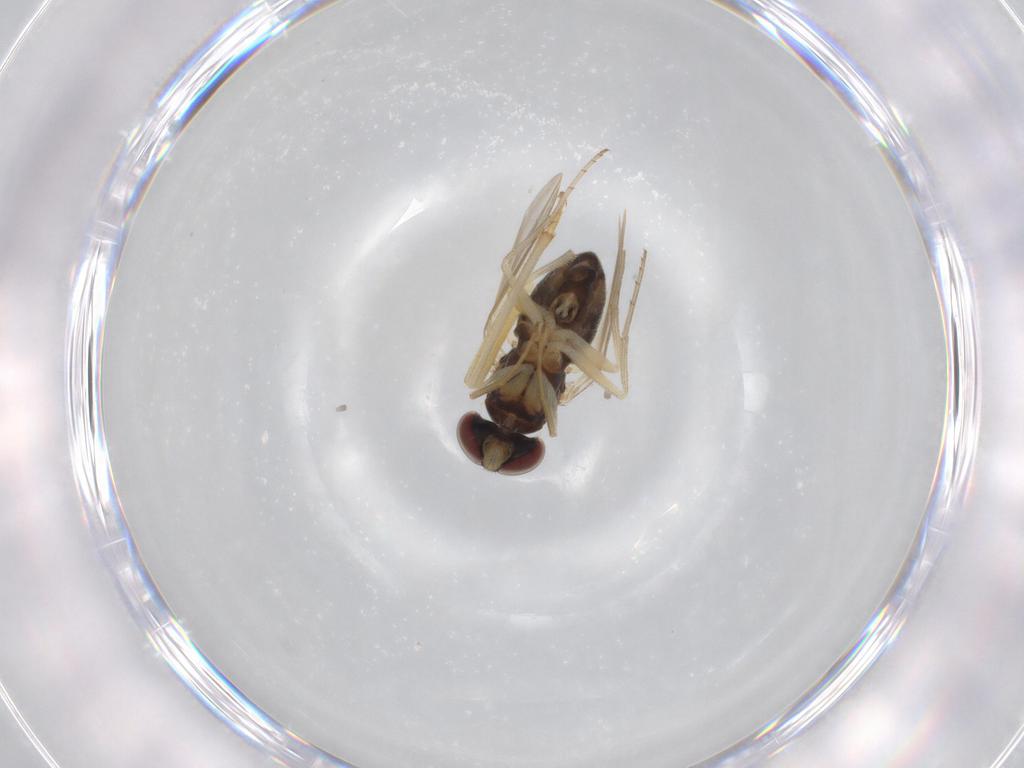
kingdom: Animalia
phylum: Arthropoda
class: Insecta
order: Diptera
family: Dolichopodidae
